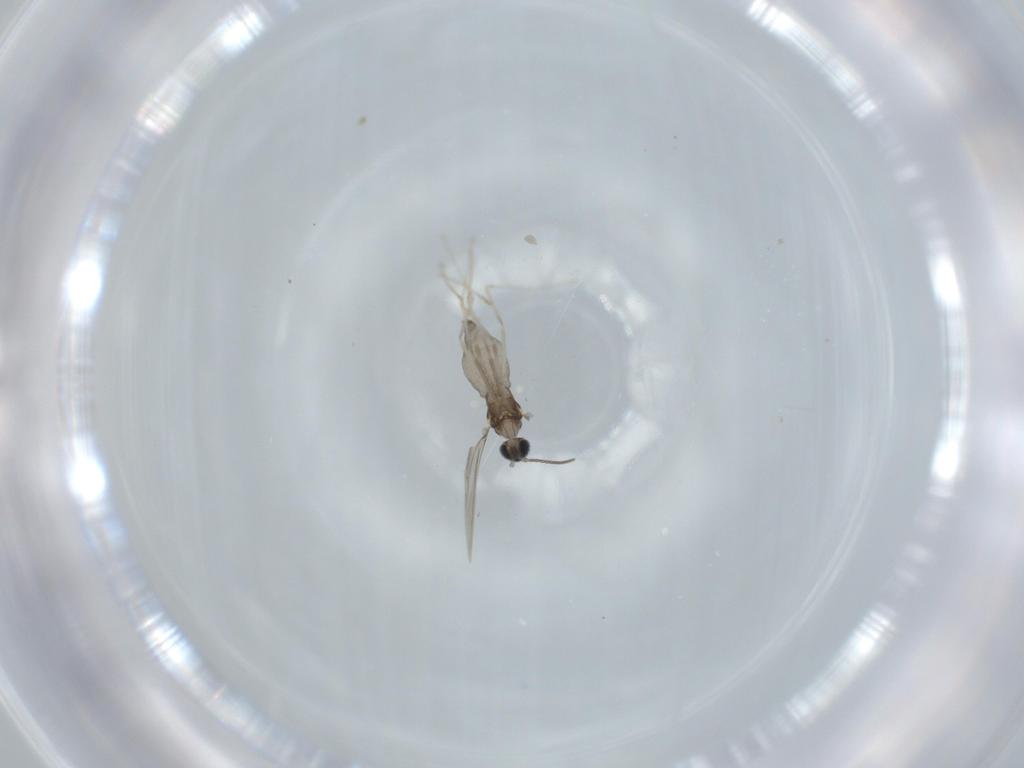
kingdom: Animalia
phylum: Arthropoda
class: Insecta
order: Diptera
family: Cecidomyiidae
